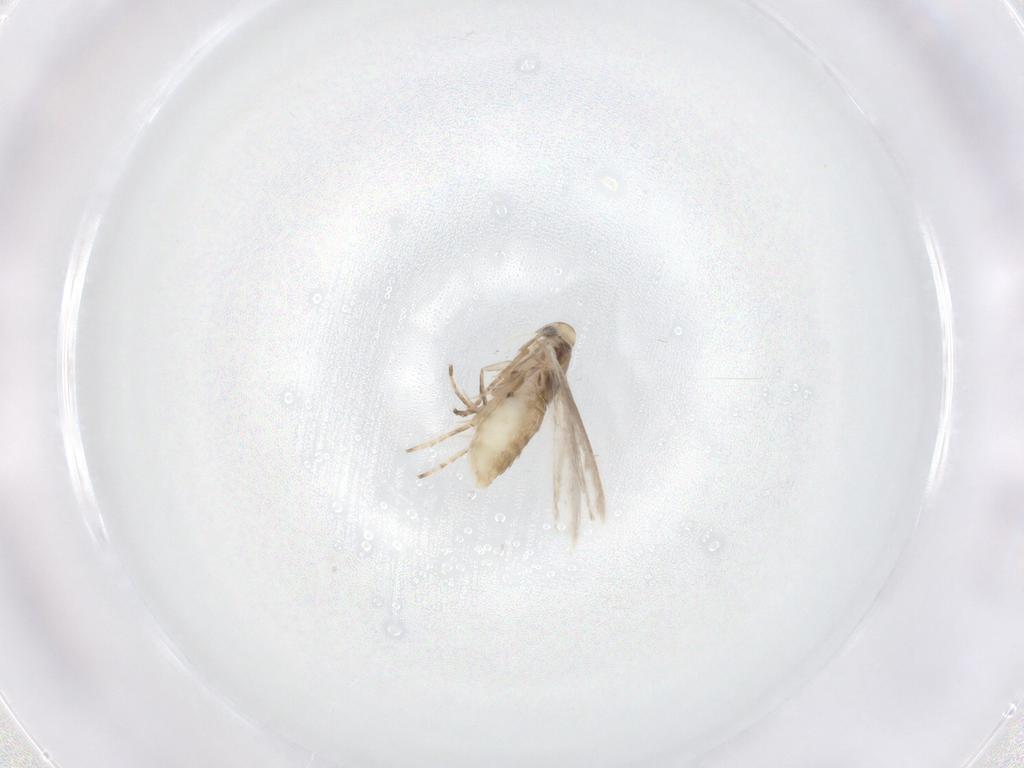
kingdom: Animalia
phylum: Arthropoda
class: Insecta
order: Lepidoptera
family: Depressariidae
